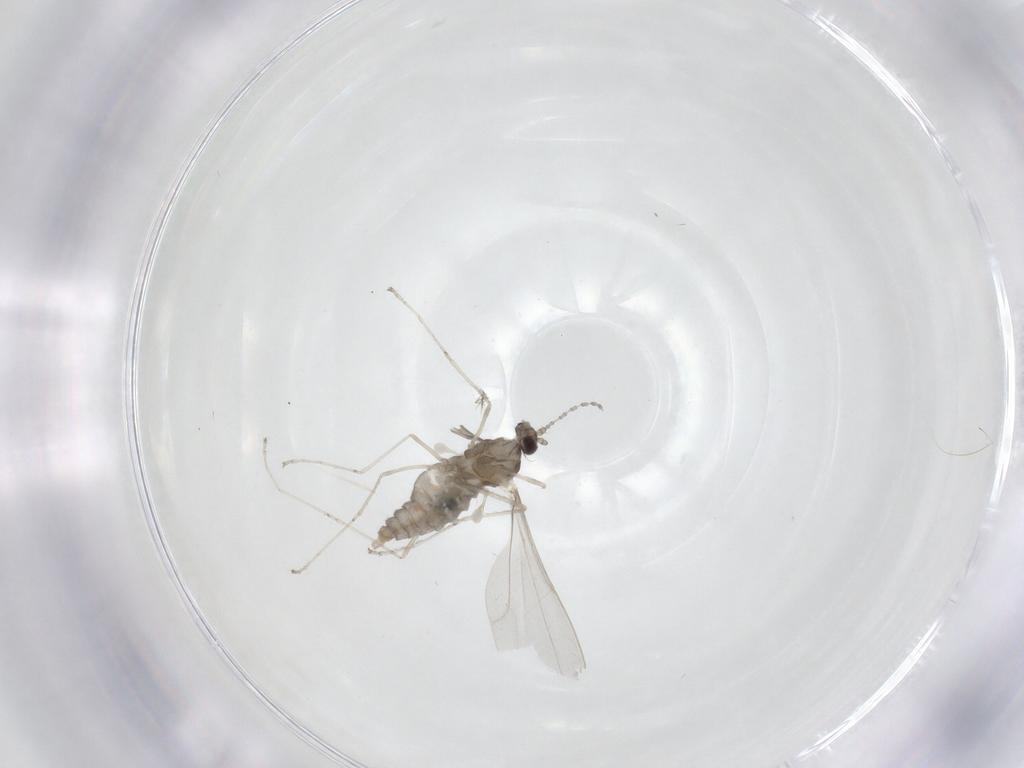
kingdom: Animalia
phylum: Arthropoda
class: Insecta
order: Diptera
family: Cecidomyiidae
